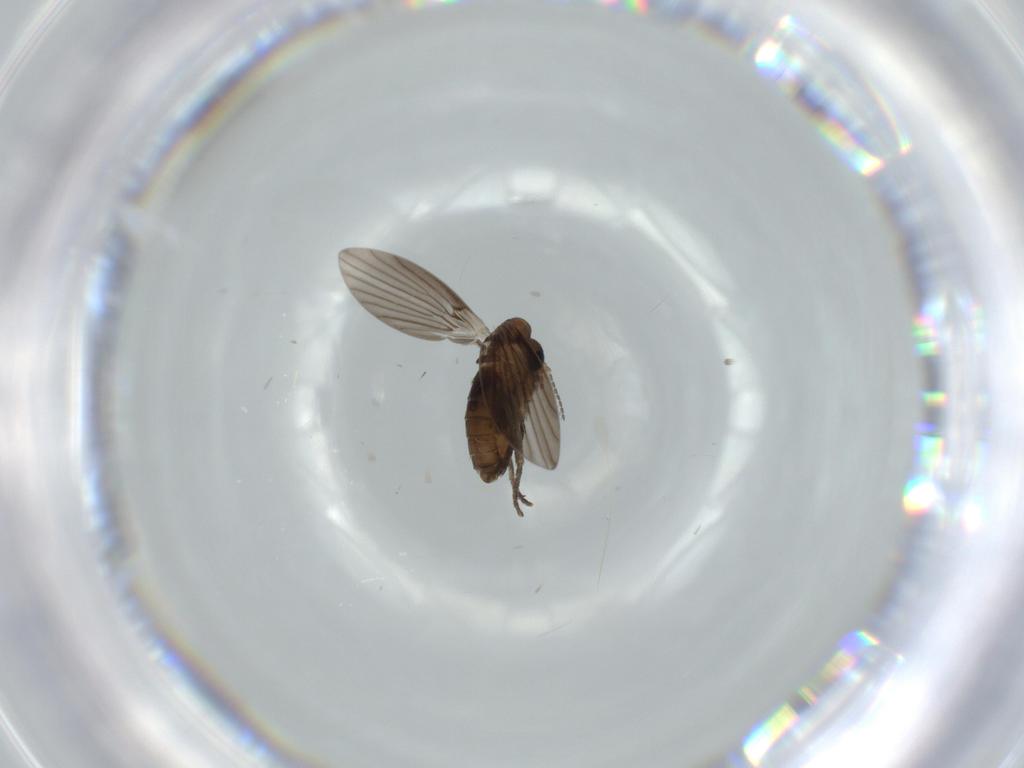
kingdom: Animalia
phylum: Arthropoda
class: Insecta
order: Diptera
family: Psychodidae
